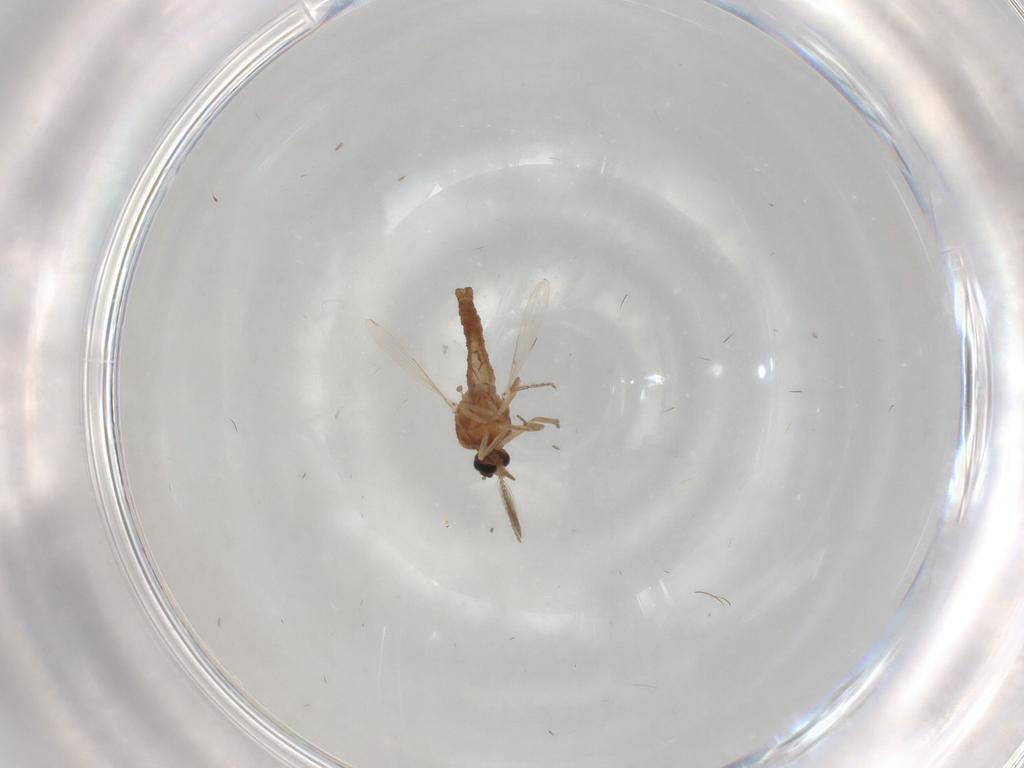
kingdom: Animalia
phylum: Arthropoda
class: Insecta
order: Diptera
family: Ceratopogonidae
